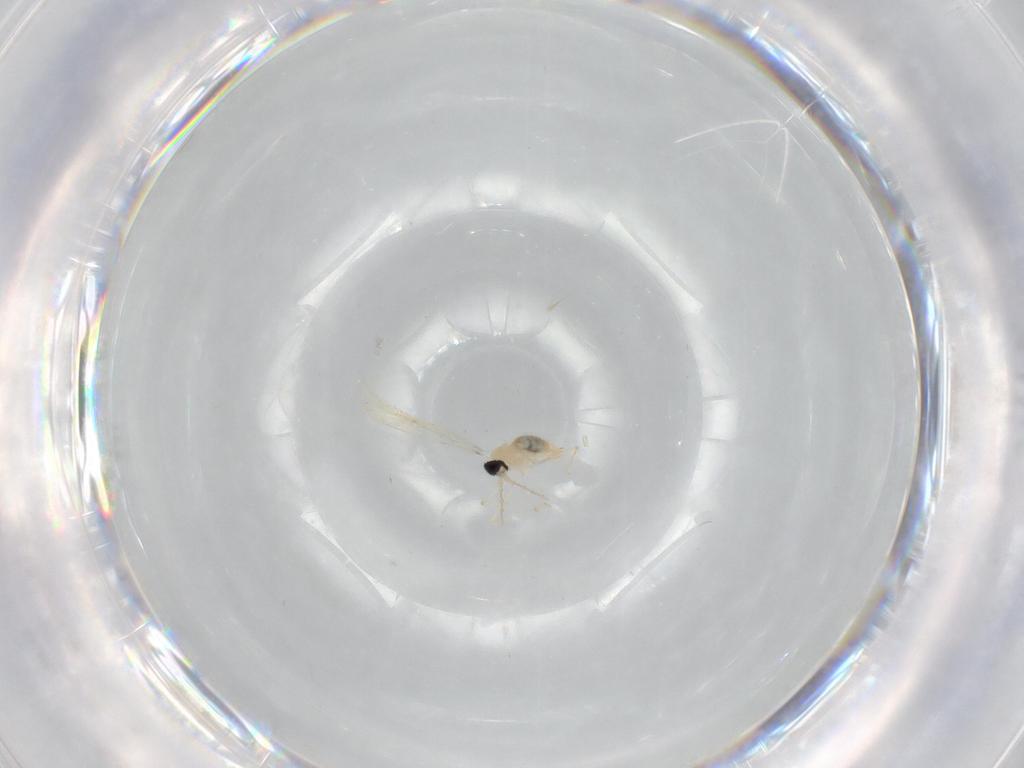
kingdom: Animalia
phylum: Arthropoda
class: Insecta
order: Diptera
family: Cecidomyiidae
